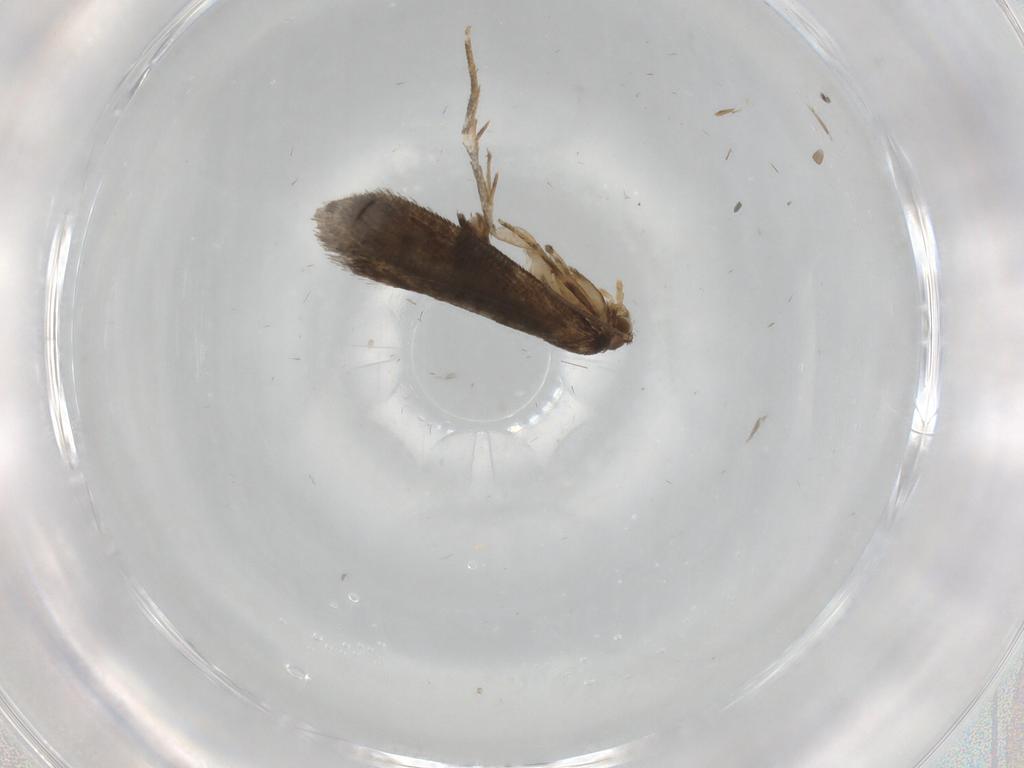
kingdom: Animalia
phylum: Arthropoda
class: Insecta
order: Lepidoptera
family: Tineidae
